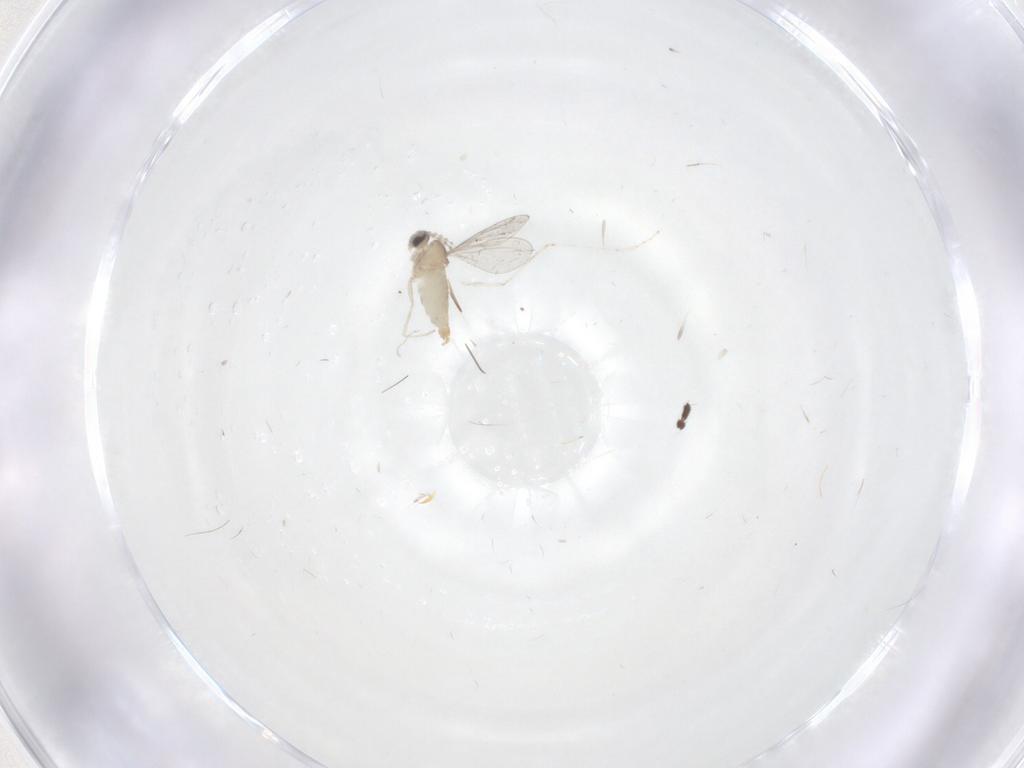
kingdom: Animalia
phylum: Arthropoda
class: Insecta
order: Diptera
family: Cecidomyiidae
